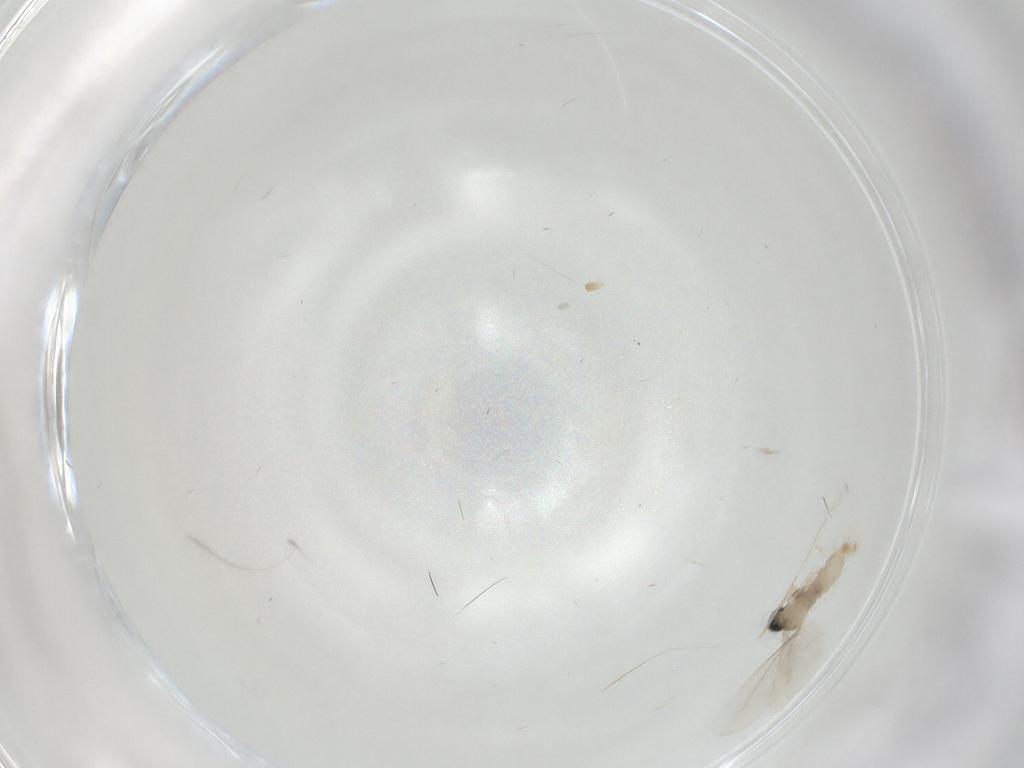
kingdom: Animalia
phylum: Arthropoda
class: Insecta
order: Diptera
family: Cecidomyiidae
